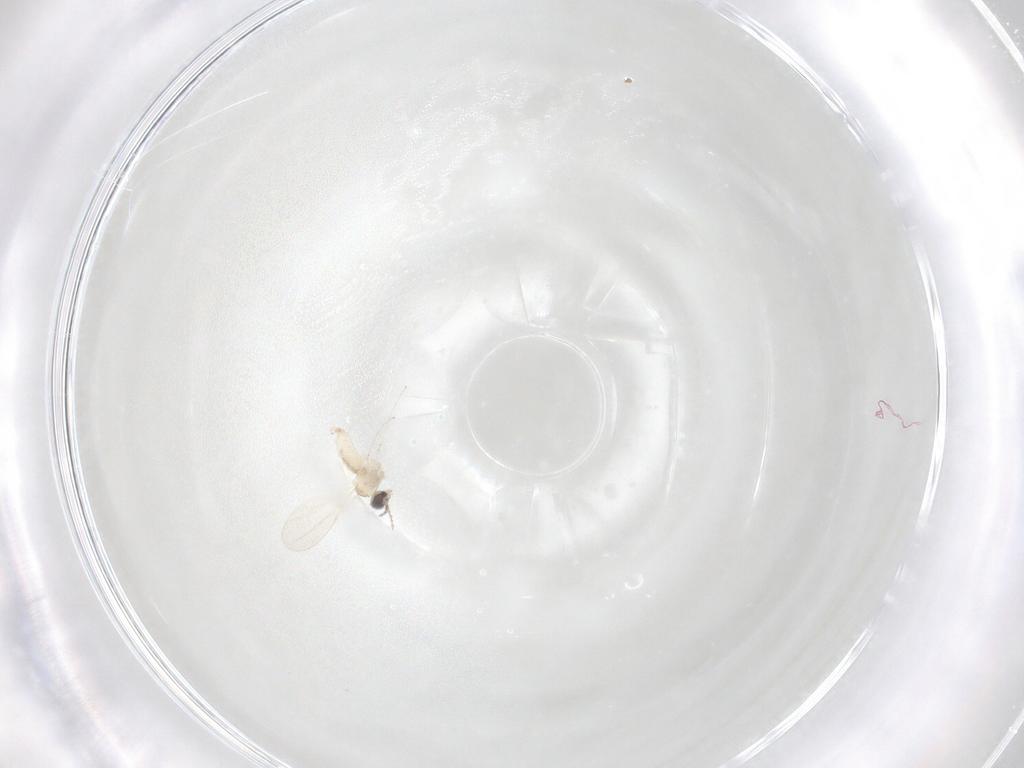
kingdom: Animalia
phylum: Arthropoda
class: Insecta
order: Diptera
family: Cecidomyiidae
